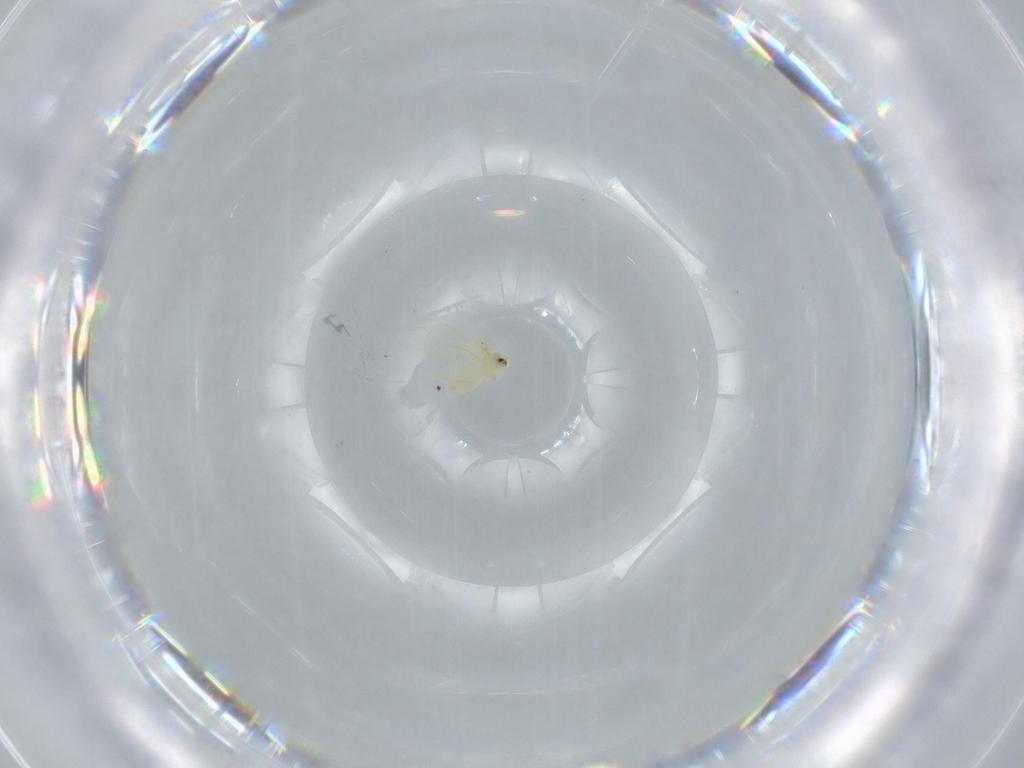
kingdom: Animalia
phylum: Arthropoda
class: Insecta
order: Hemiptera
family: Aleyrodidae
